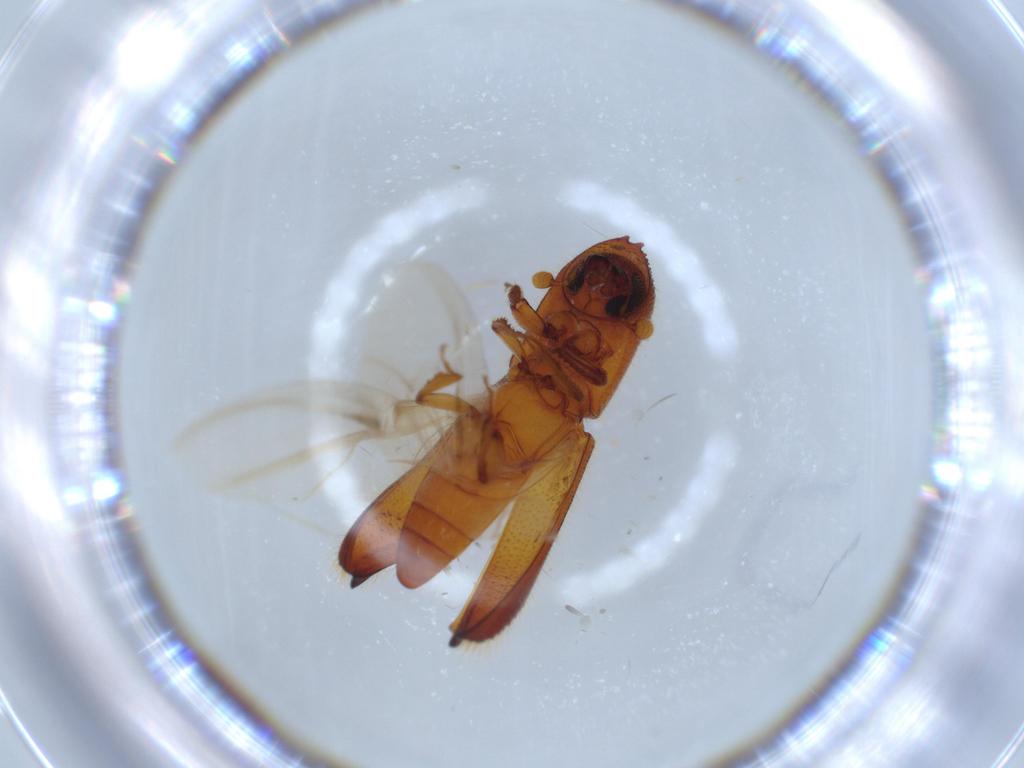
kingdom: Animalia
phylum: Arthropoda
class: Insecta
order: Coleoptera
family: Curculionidae
